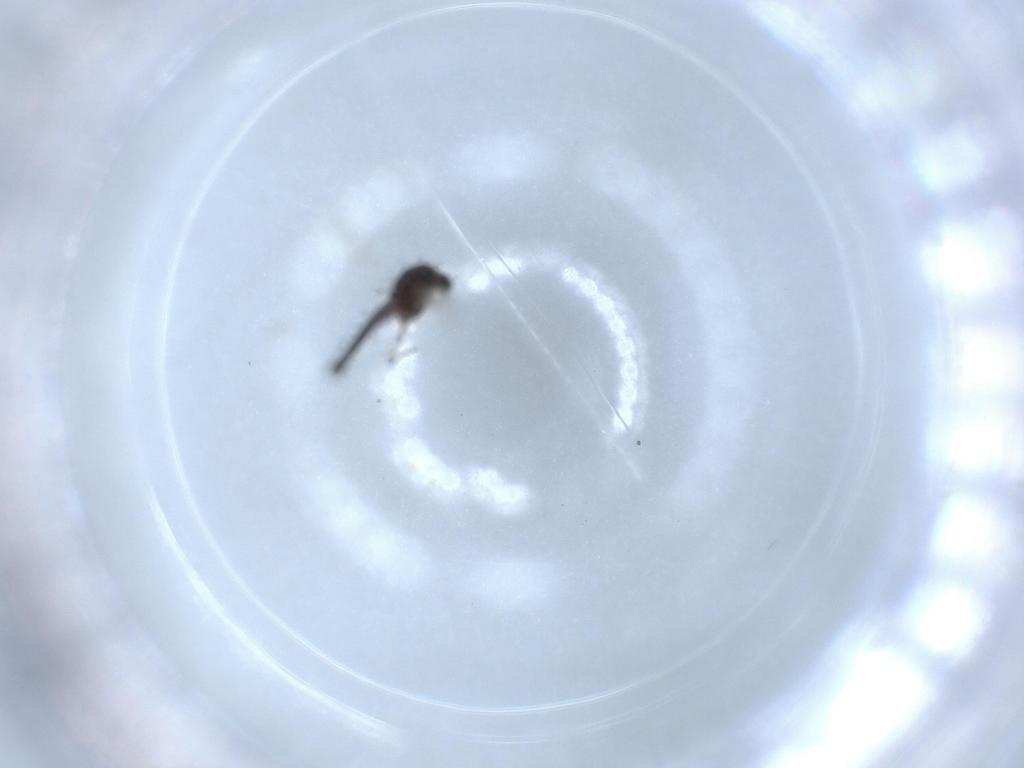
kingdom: Animalia
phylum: Arthropoda
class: Insecta
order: Diptera
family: Chironomidae
